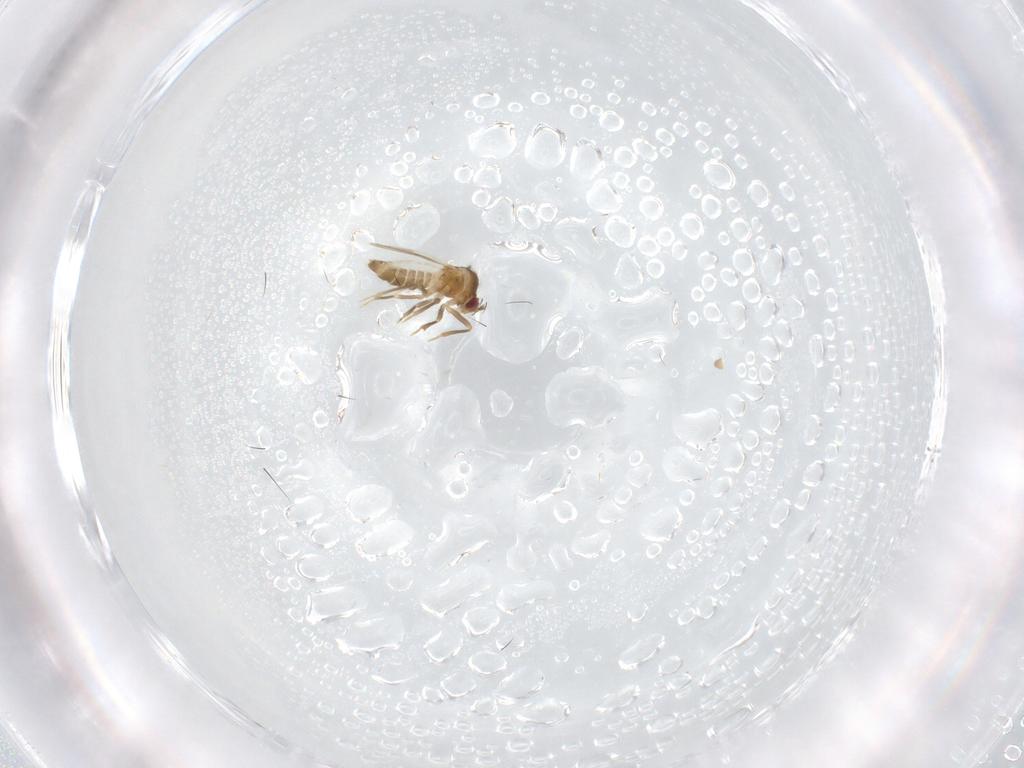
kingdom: Animalia
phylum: Arthropoda
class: Insecta
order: Diptera
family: Cecidomyiidae
